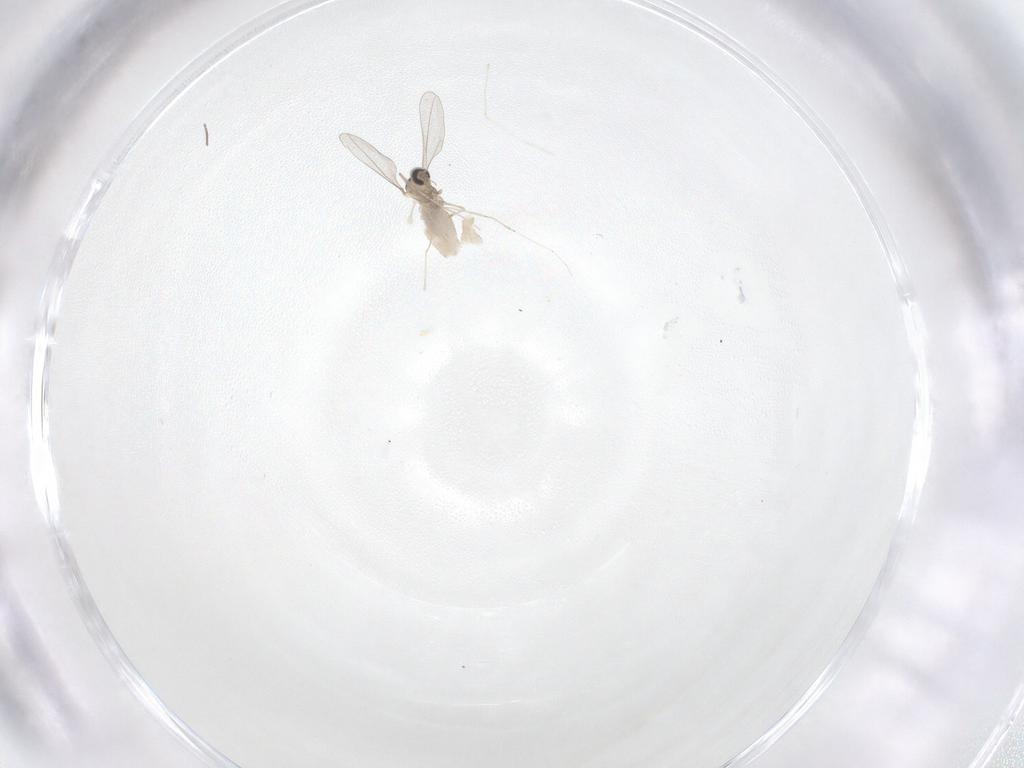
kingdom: Animalia
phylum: Arthropoda
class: Insecta
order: Diptera
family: Cecidomyiidae
